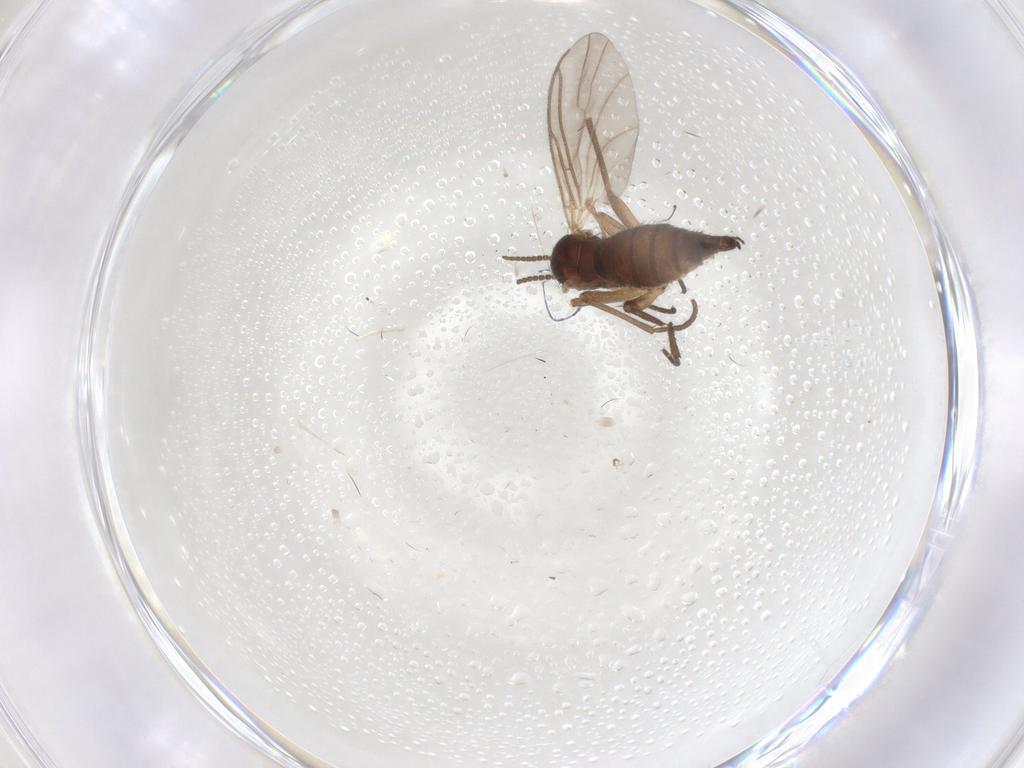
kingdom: Animalia
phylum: Arthropoda
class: Insecta
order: Diptera
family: Sciaridae
